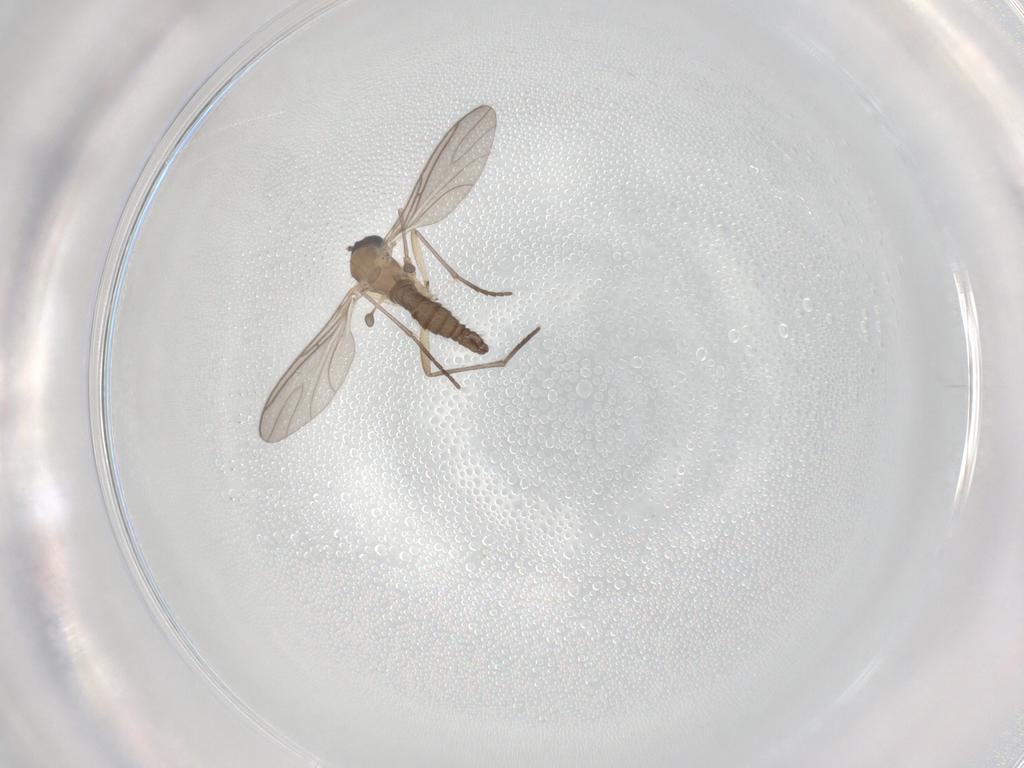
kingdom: Animalia
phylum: Arthropoda
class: Insecta
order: Diptera
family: Sciaridae
